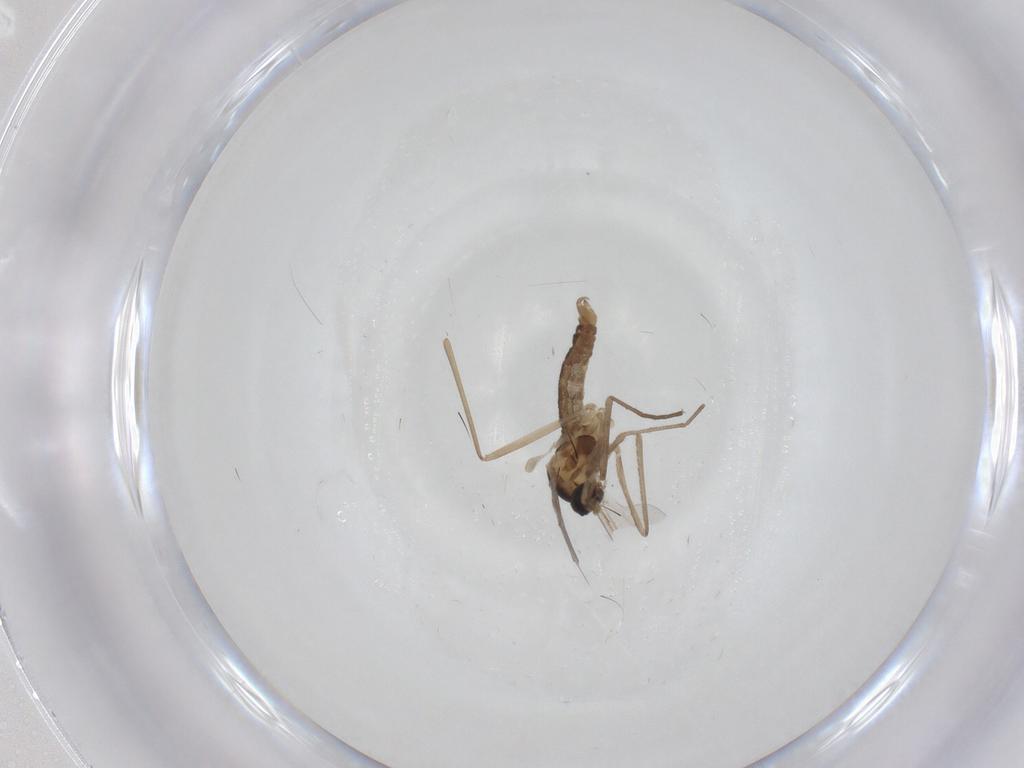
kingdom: Animalia
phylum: Arthropoda
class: Insecta
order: Diptera
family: Cecidomyiidae
